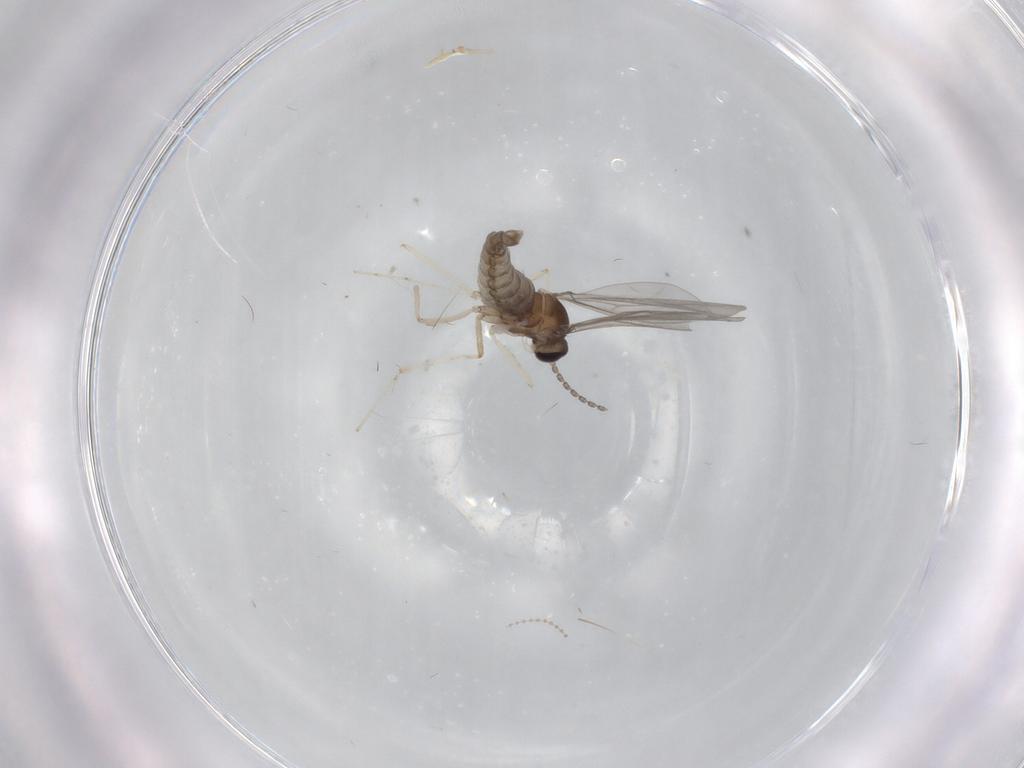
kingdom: Animalia
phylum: Arthropoda
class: Insecta
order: Diptera
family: Cecidomyiidae
